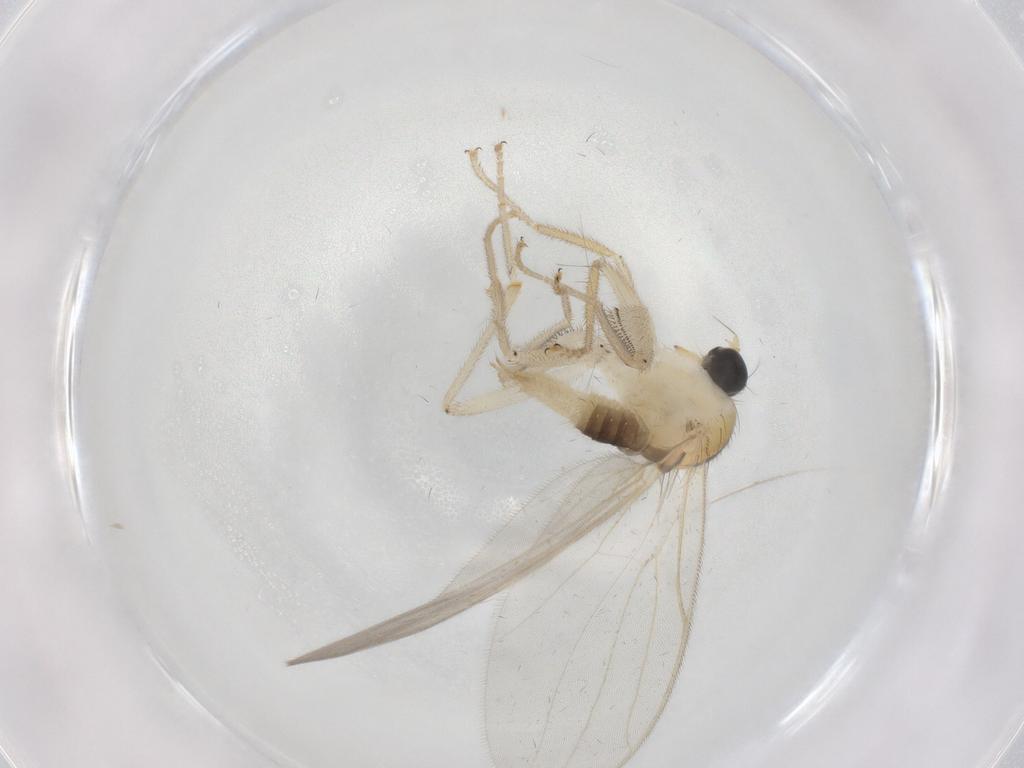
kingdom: Animalia
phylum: Arthropoda
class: Insecta
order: Diptera
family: Hybotidae
